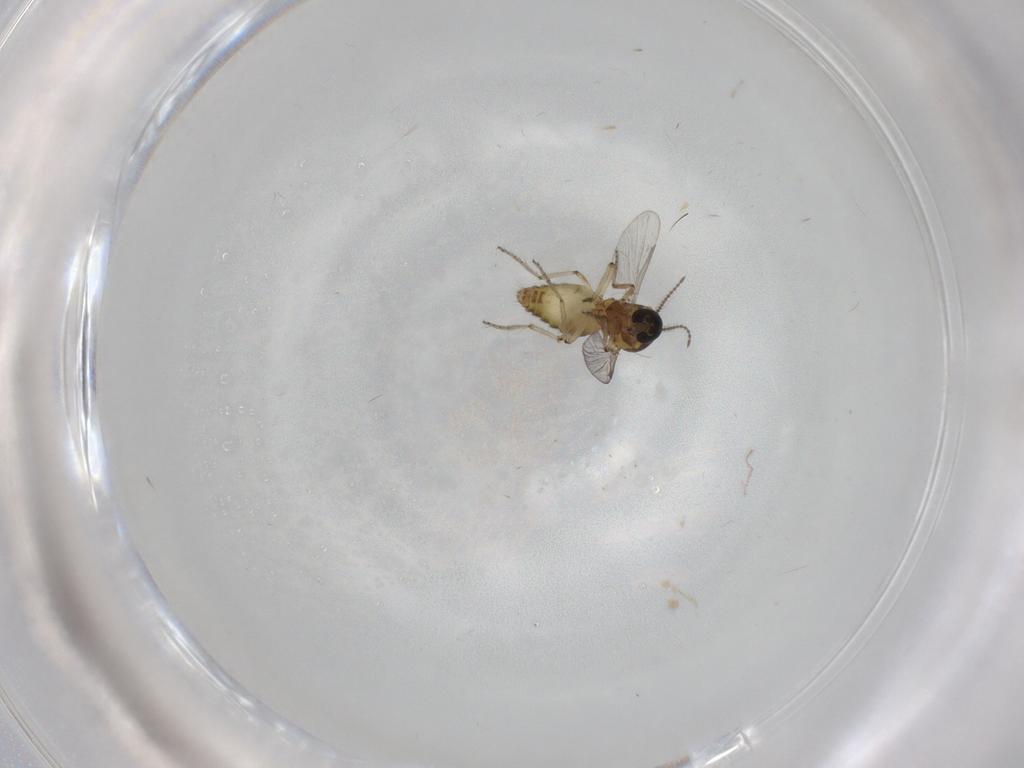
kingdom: Animalia
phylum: Arthropoda
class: Insecta
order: Diptera
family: Ceratopogonidae
